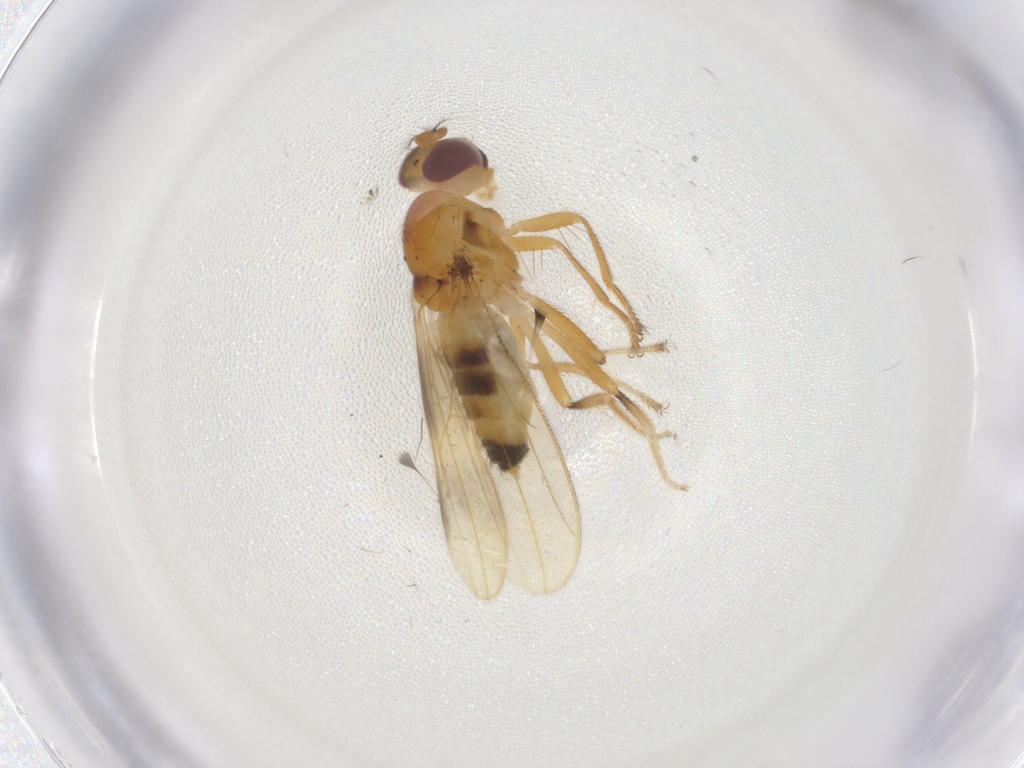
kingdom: Animalia
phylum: Arthropoda
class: Insecta
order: Diptera
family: Periscelididae
